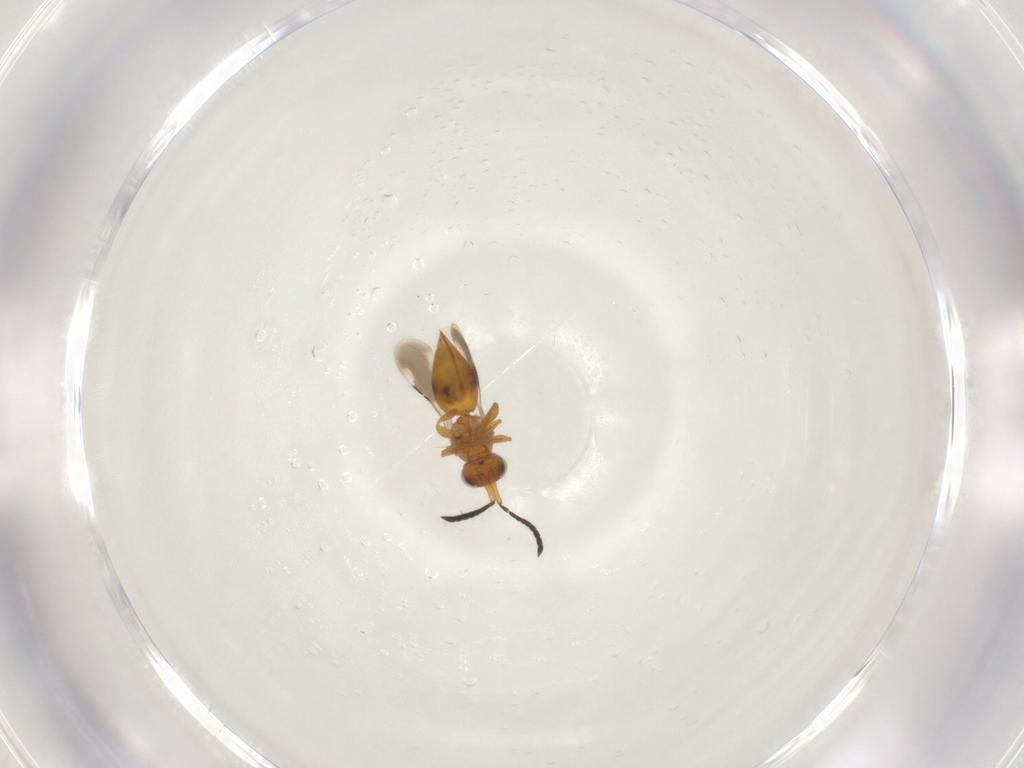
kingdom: Animalia
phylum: Arthropoda
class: Insecta
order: Hymenoptera
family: Ceraphronidae
